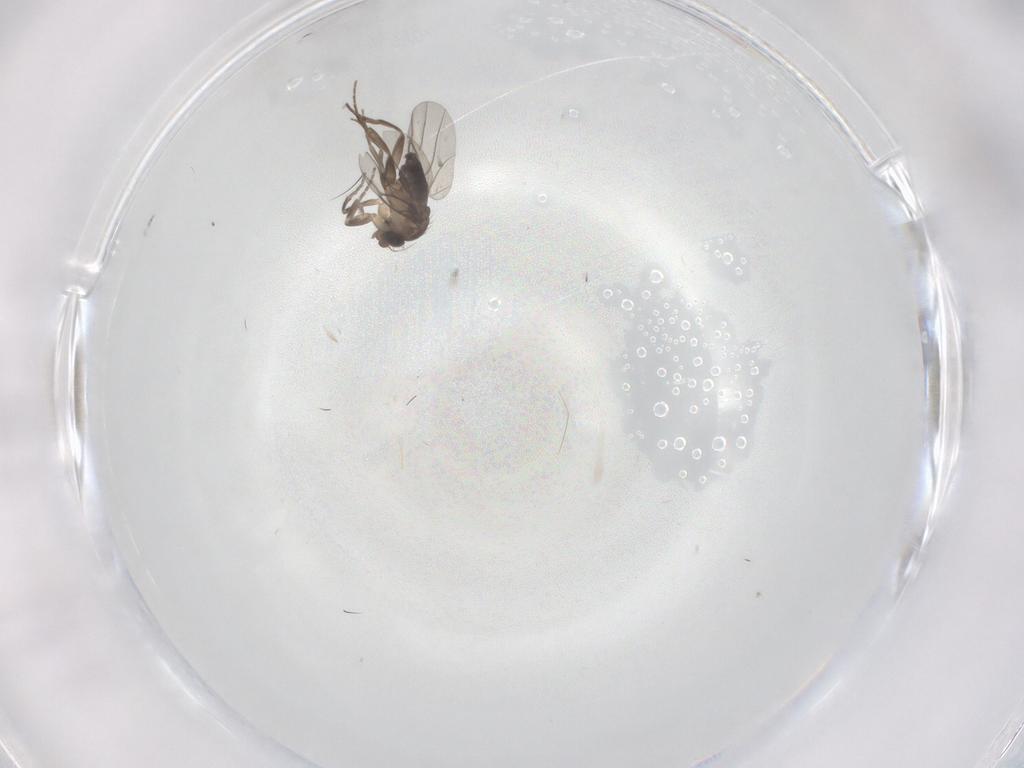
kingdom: Animalia
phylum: Arthropoda
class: Insecta
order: Diptera
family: Phoridae
